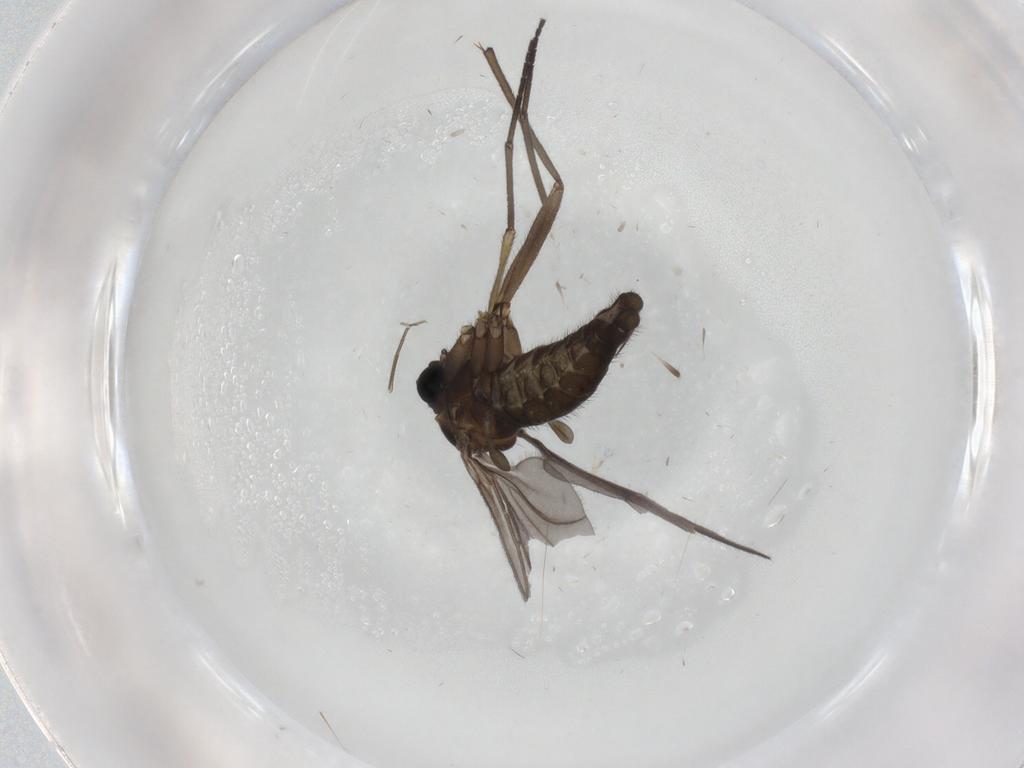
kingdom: Animalia
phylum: Arthropoda
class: Insecta
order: Diptera
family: Sciaridae
